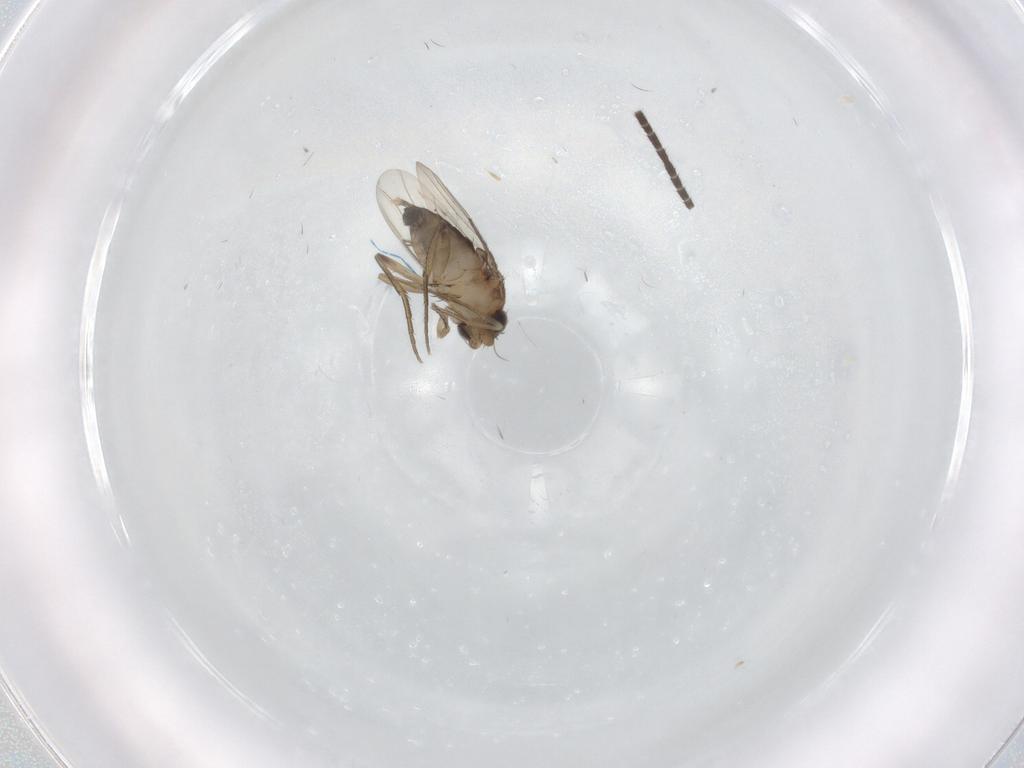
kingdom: Animalia
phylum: Arthropoda
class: Insecta
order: Diptera
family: Phoridae
